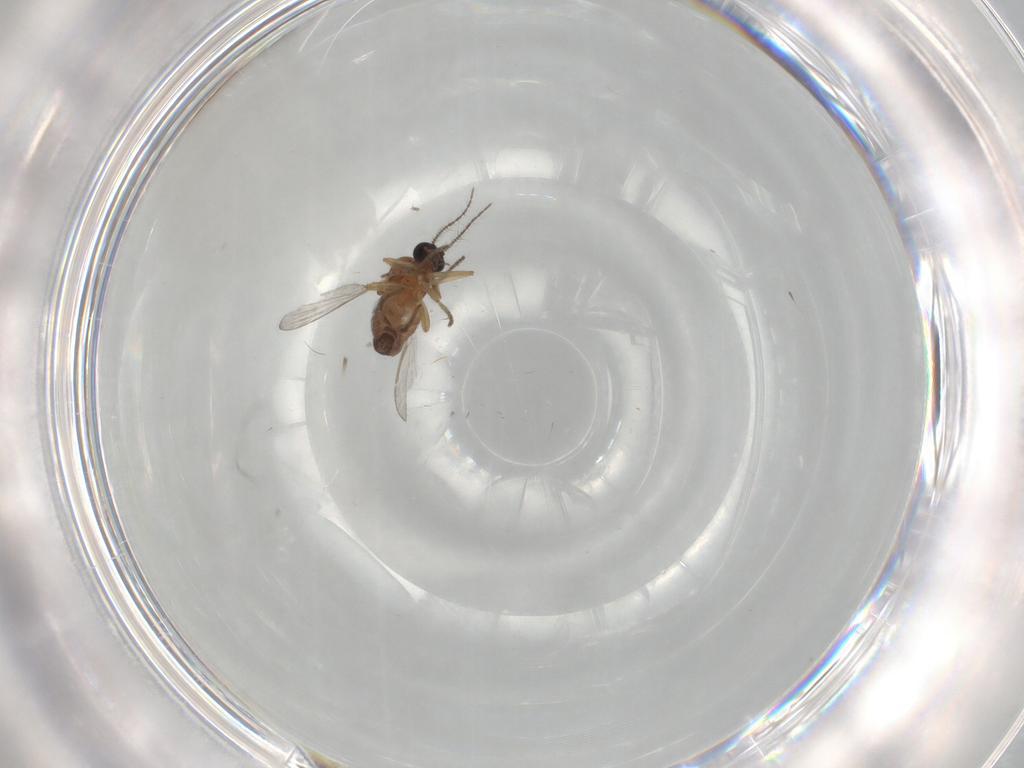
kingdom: Animalia
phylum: Arthropoda
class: Insecta
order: Diptera
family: Ceratopogonidae
